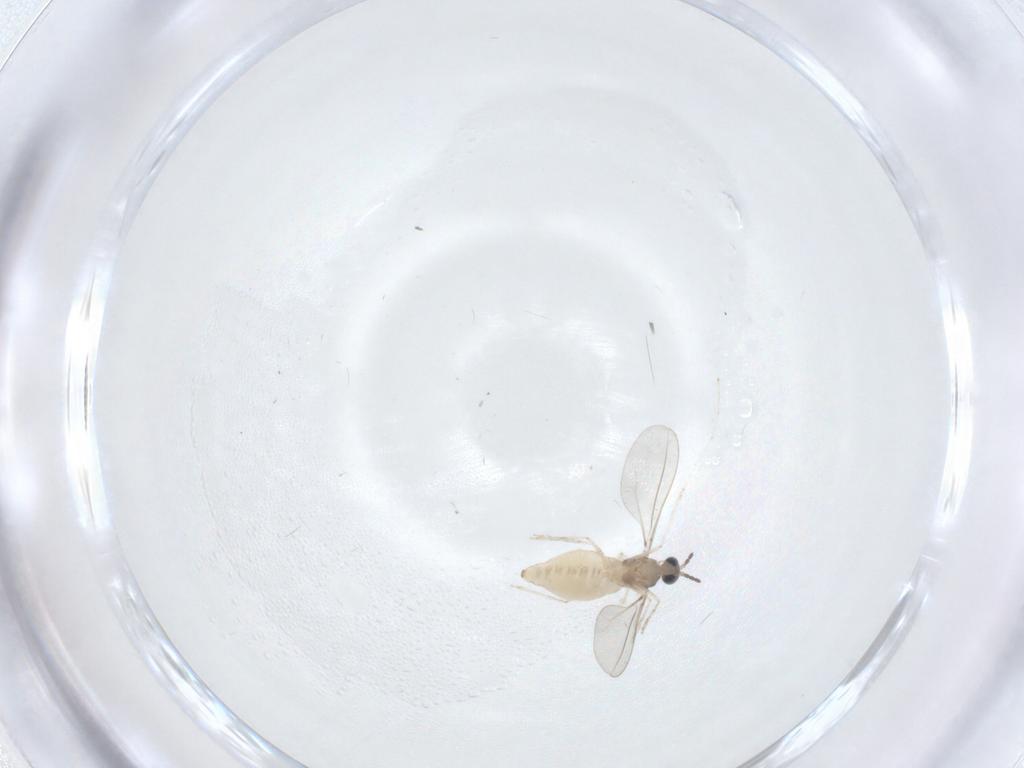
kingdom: Animalia
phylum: Arthropoda
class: Insecta
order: Diptera
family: Cecidomyiidae
